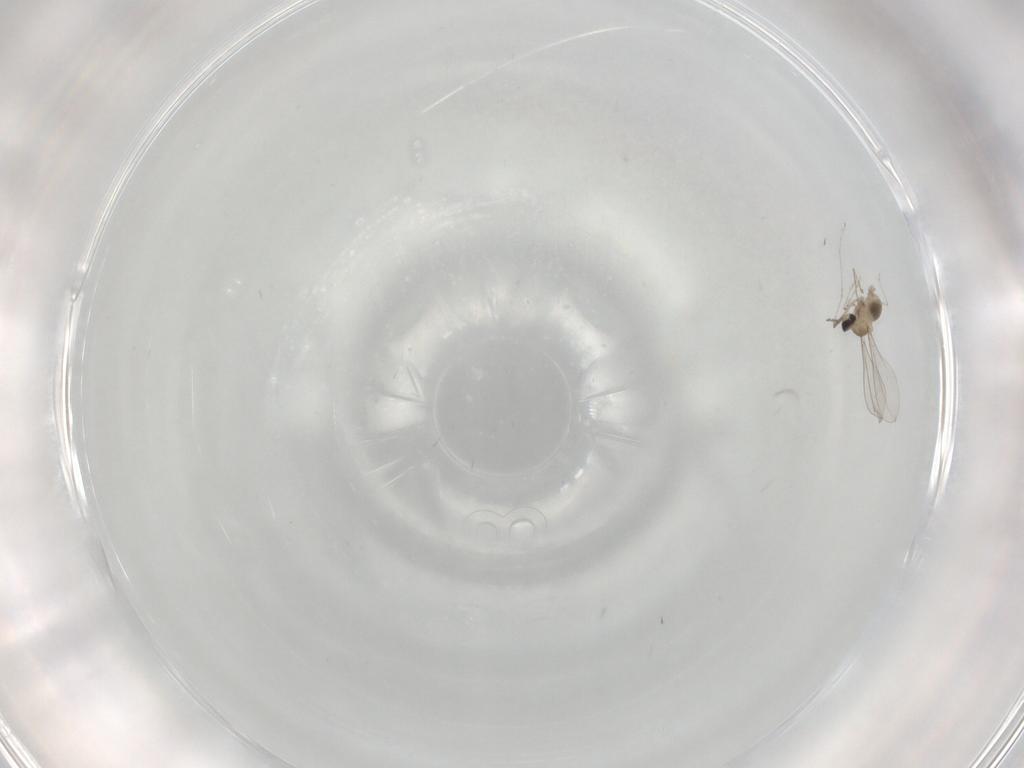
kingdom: Animalia
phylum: Arthropoda
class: Insecta
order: Diptera
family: Cecidomyiidae
